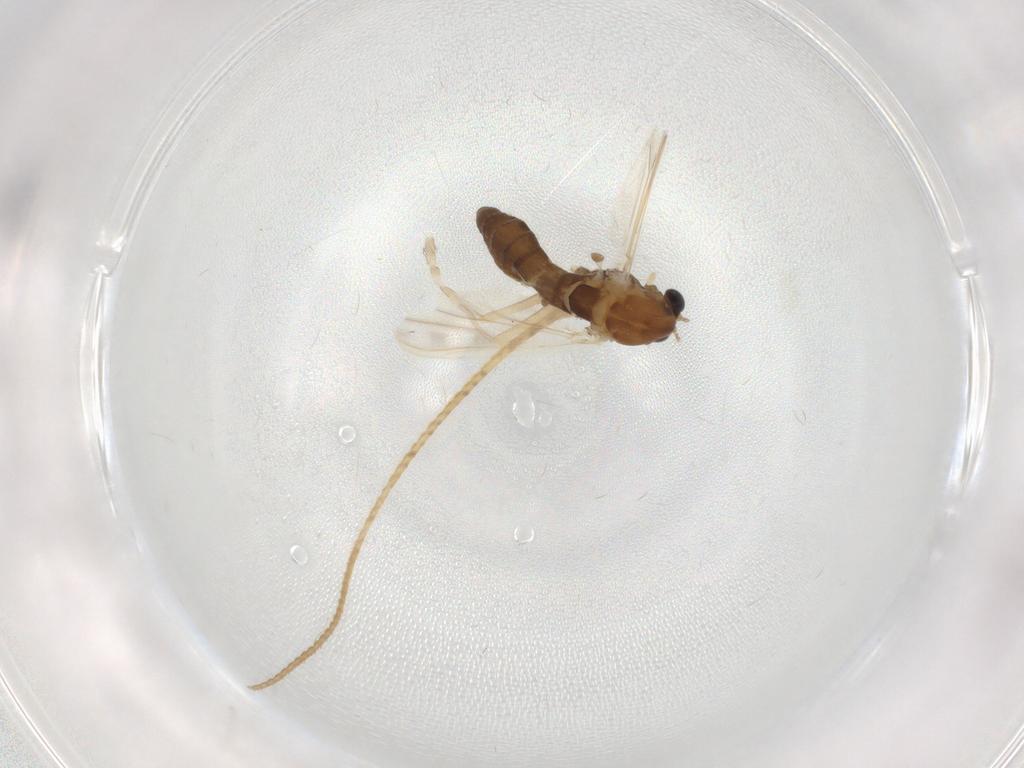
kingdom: Animalia
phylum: Arthropoda
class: Insecta
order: Diptera
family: Chironomidae
